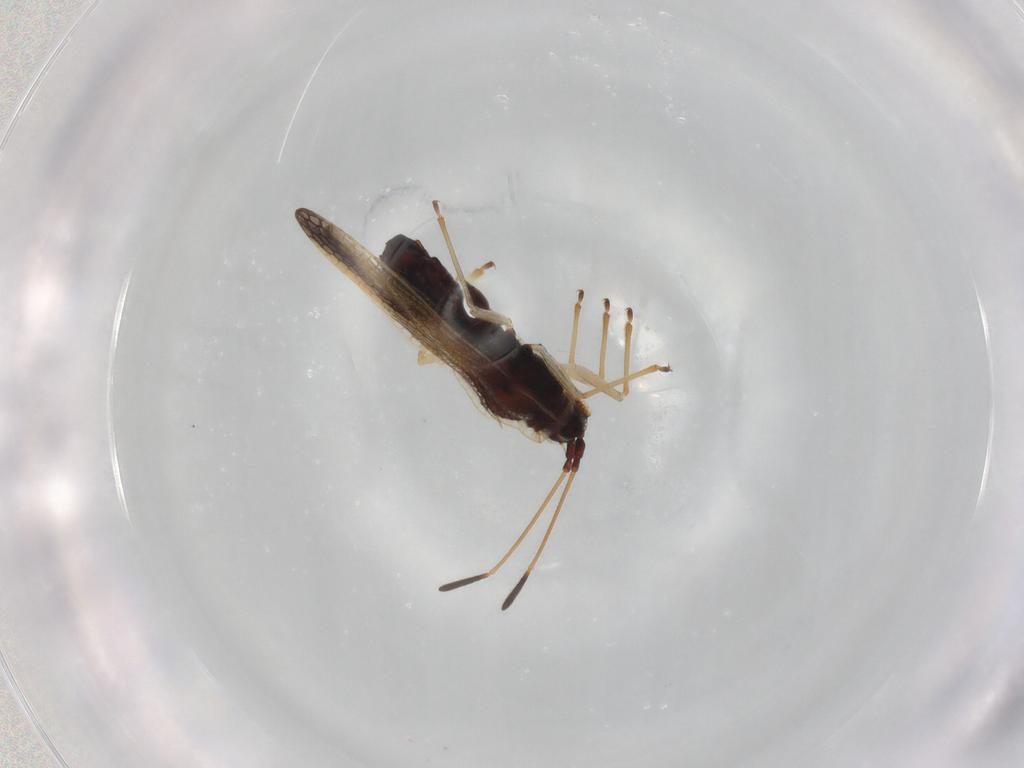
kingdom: Animalia
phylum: Arthropoda
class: Insecta
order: Hemiptera
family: Tingidae
